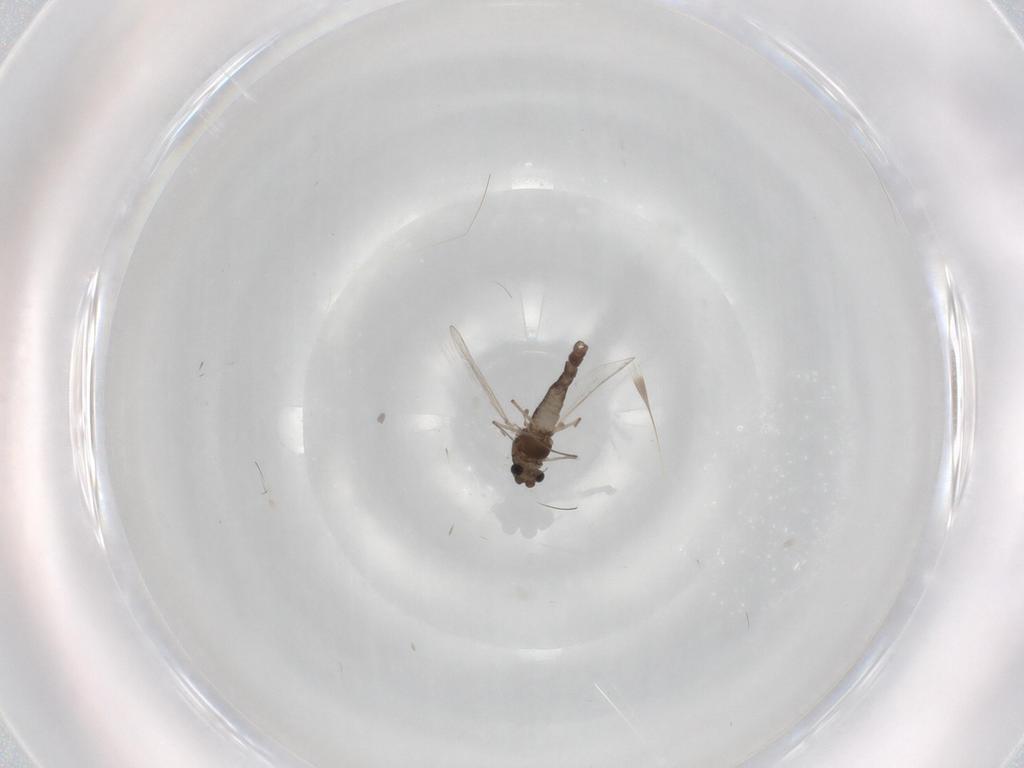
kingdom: Animalia
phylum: Arthropoda
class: Insecta
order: Diptera
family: Chironomidae
